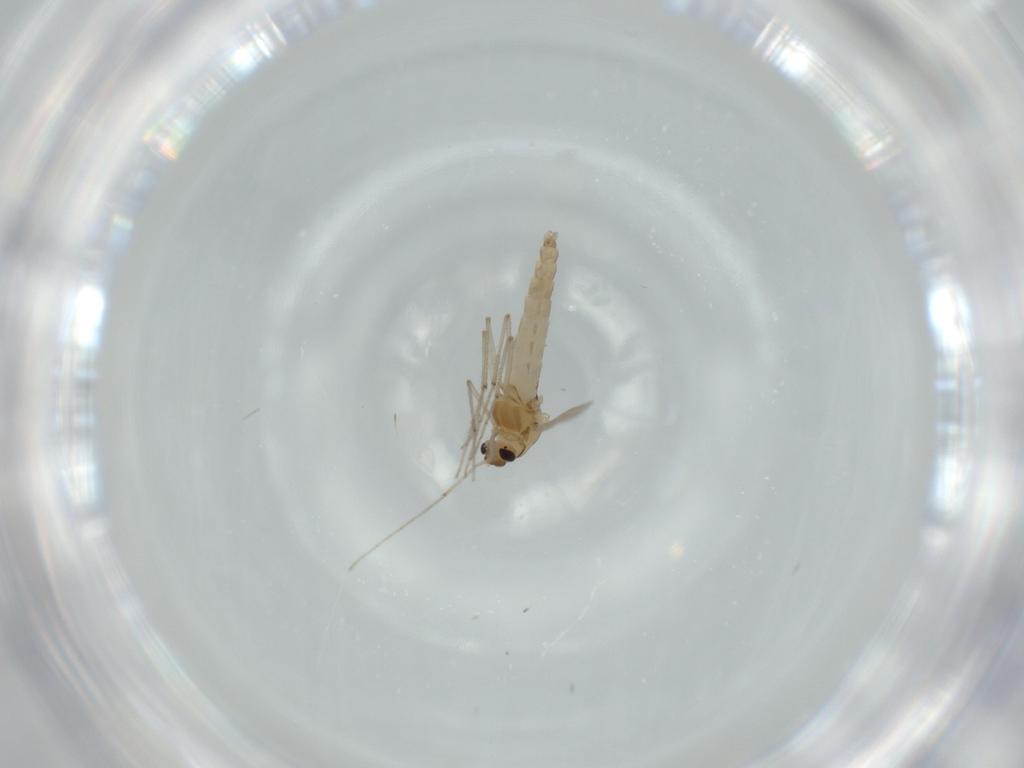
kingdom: Animalia
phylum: Arthropoda
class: Insecta
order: Diptera
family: Chironomidae
